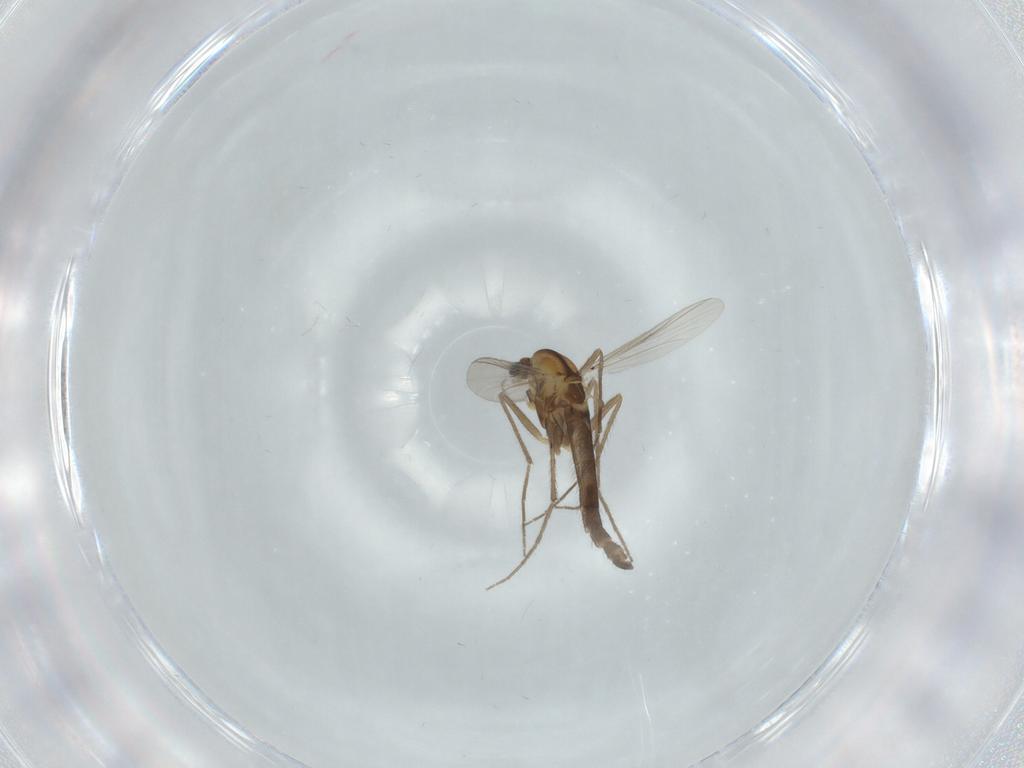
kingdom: Animalia
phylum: Arthropoda
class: Insecta
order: Diptera
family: Chironomidae
